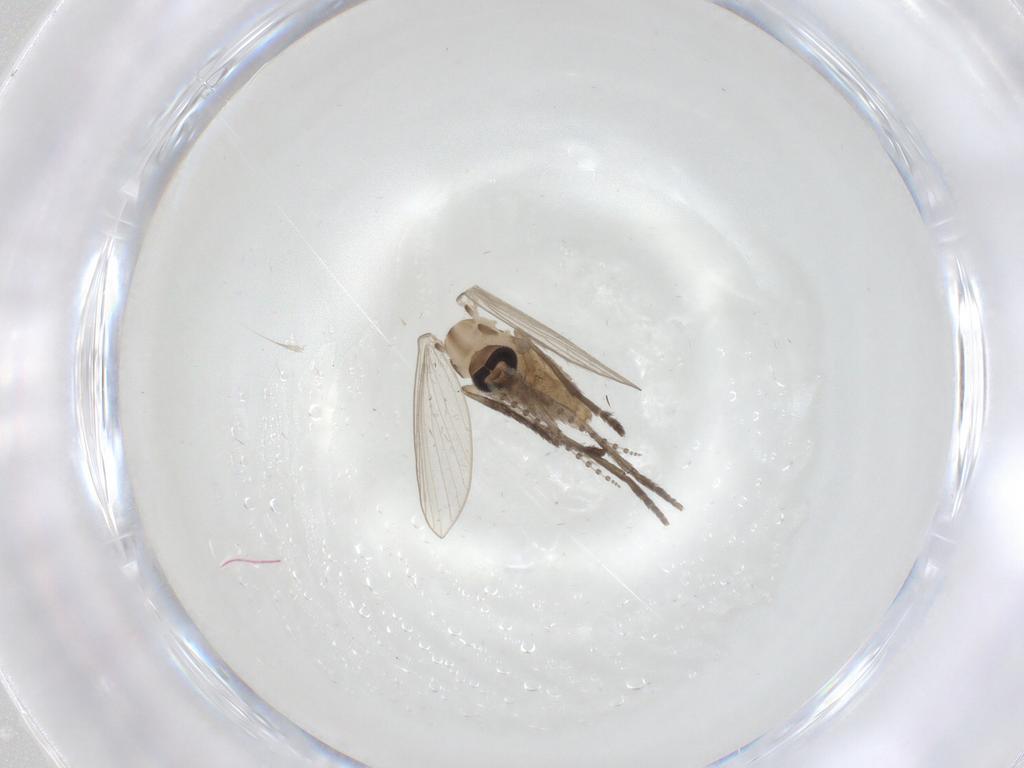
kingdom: Animalia
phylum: Arthropoda
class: Insecta
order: Diptera
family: Psychodidae
